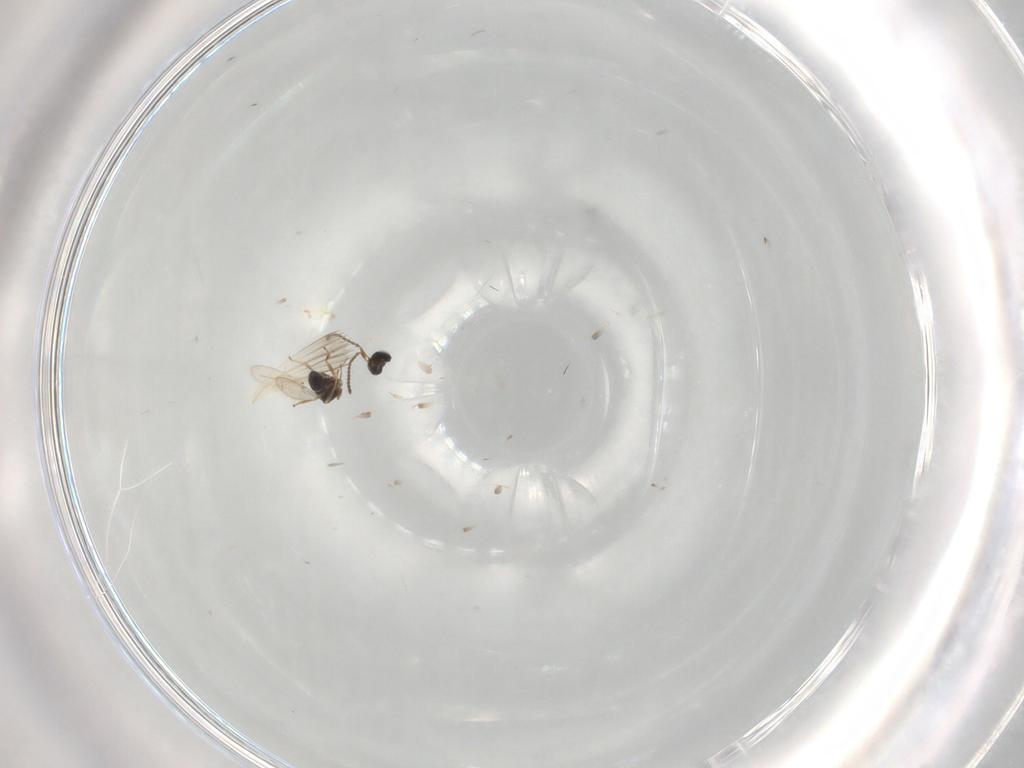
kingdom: Animalia
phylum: Arthropoda
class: Insecta
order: Hymenoptera
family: Scelionidae
